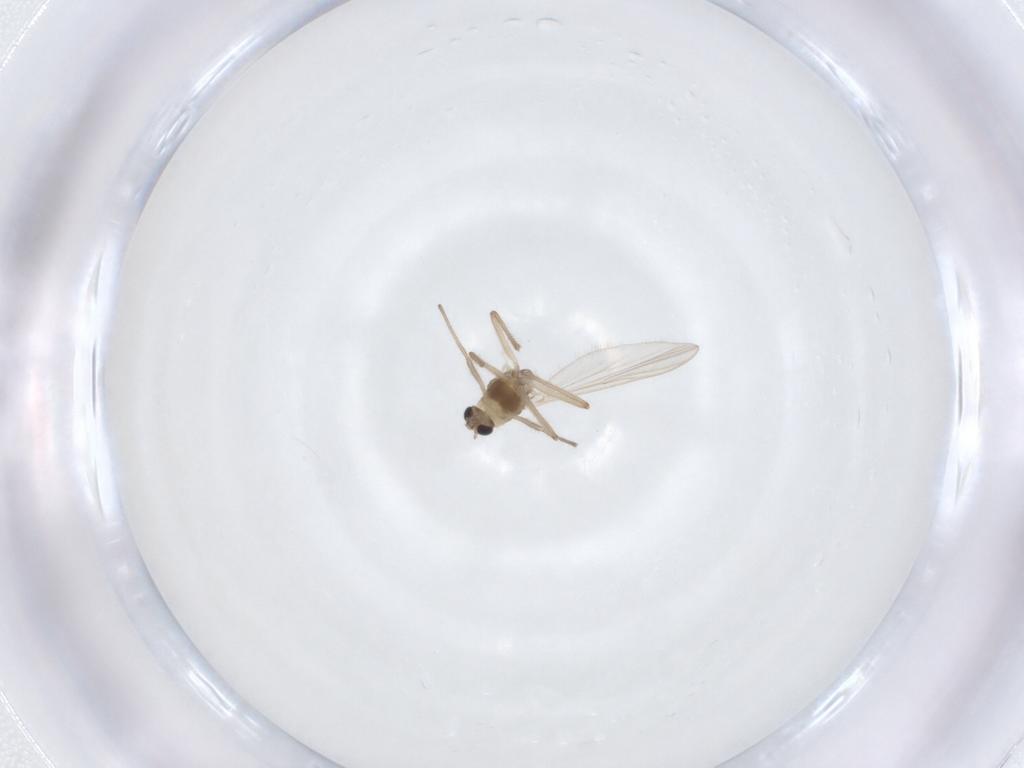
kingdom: Animalia
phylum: Arthropoda
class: Insecta
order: Diptera
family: Chironomidae
